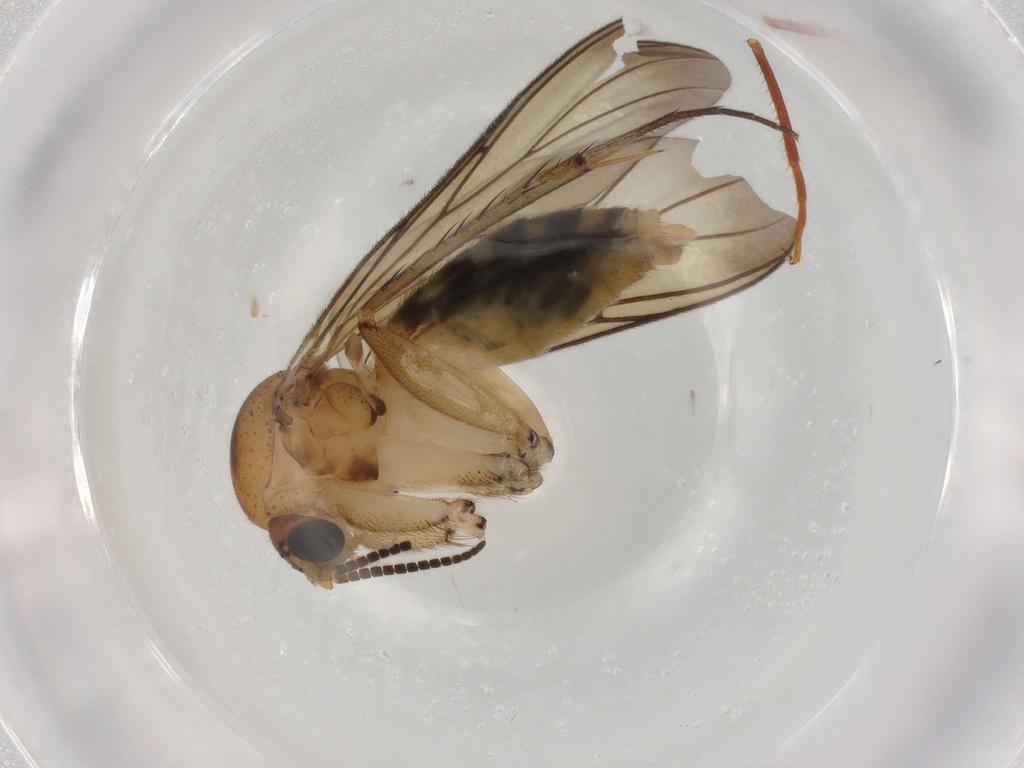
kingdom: Animalia
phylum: Arthropoda
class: Insecta
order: Diptera
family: Mycetophilidae
